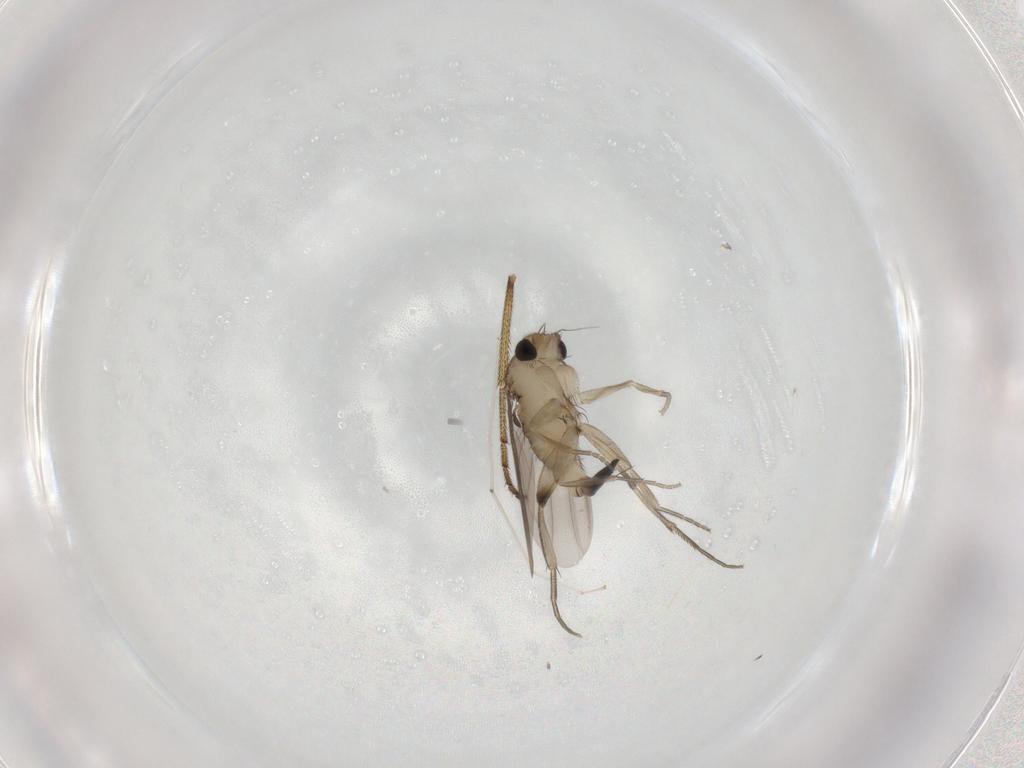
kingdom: Animalia
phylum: Arthropoda
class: Insecta
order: Diptera
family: Cecidomyiidae
